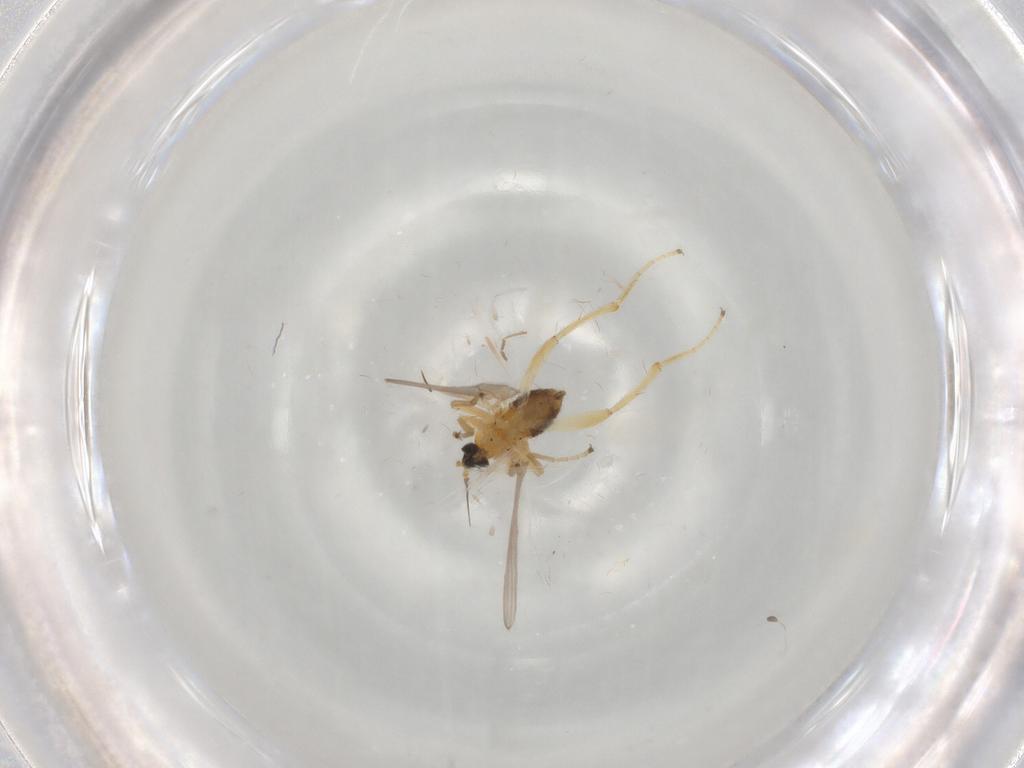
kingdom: Animalia
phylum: Arthropoda
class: Insecta
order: Diptera
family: Hybotidae
